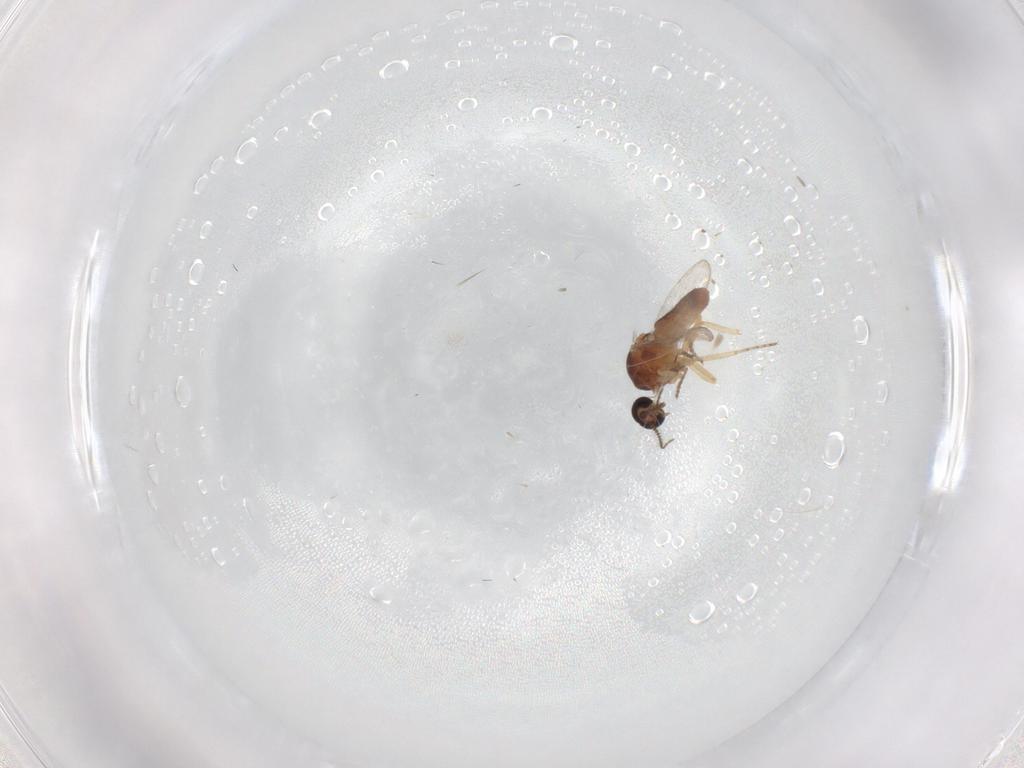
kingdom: Animalia
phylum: Arthropoda
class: Insecta
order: Diptera
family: Ceratopogonidae
